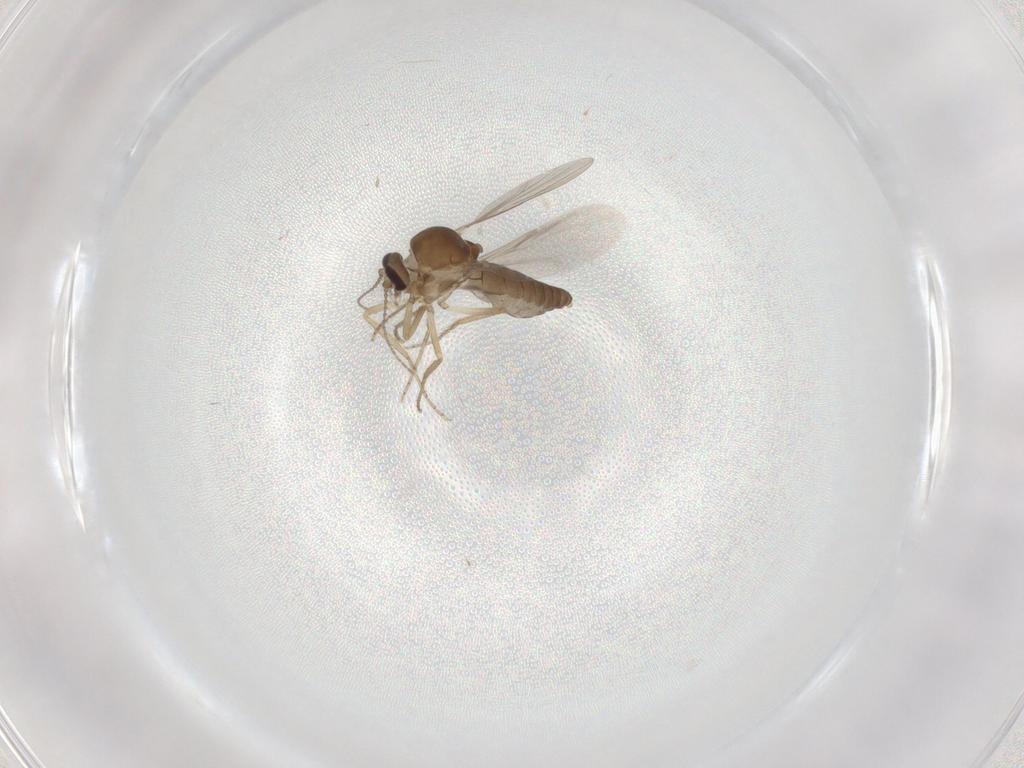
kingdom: Animalia
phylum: Arthropoda
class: Insecta
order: Diptera
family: Ceratopogonidae
